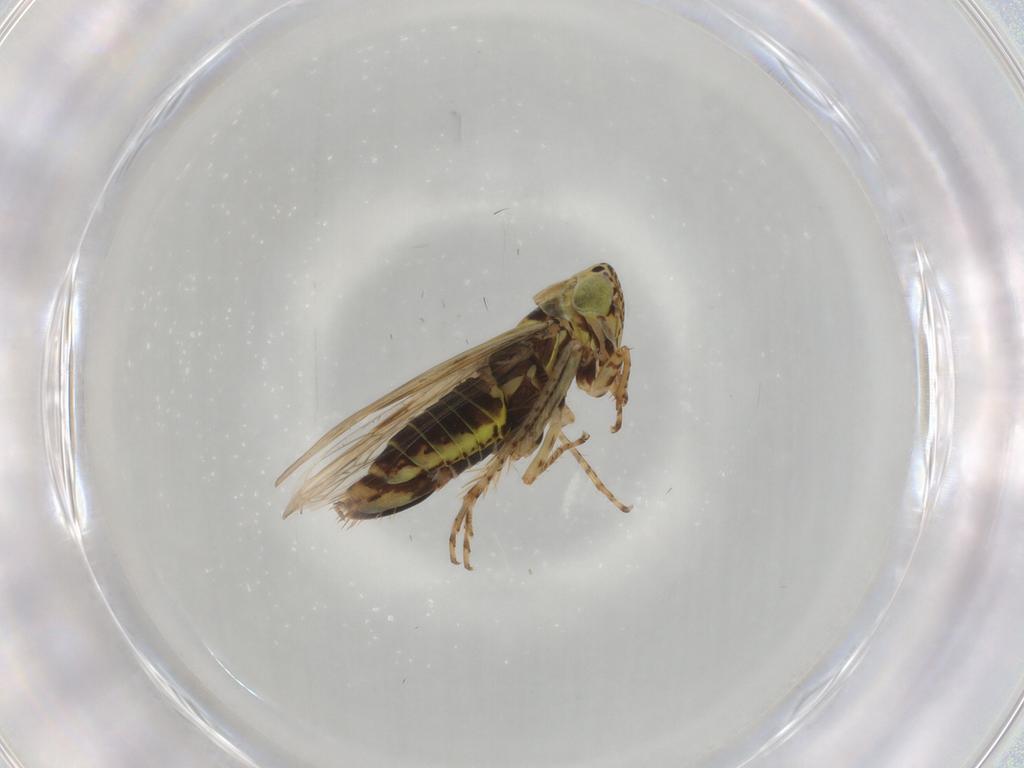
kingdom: Animalia
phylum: Arthropoda
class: Insecta
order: Hemiptera
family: Cicadellidae
